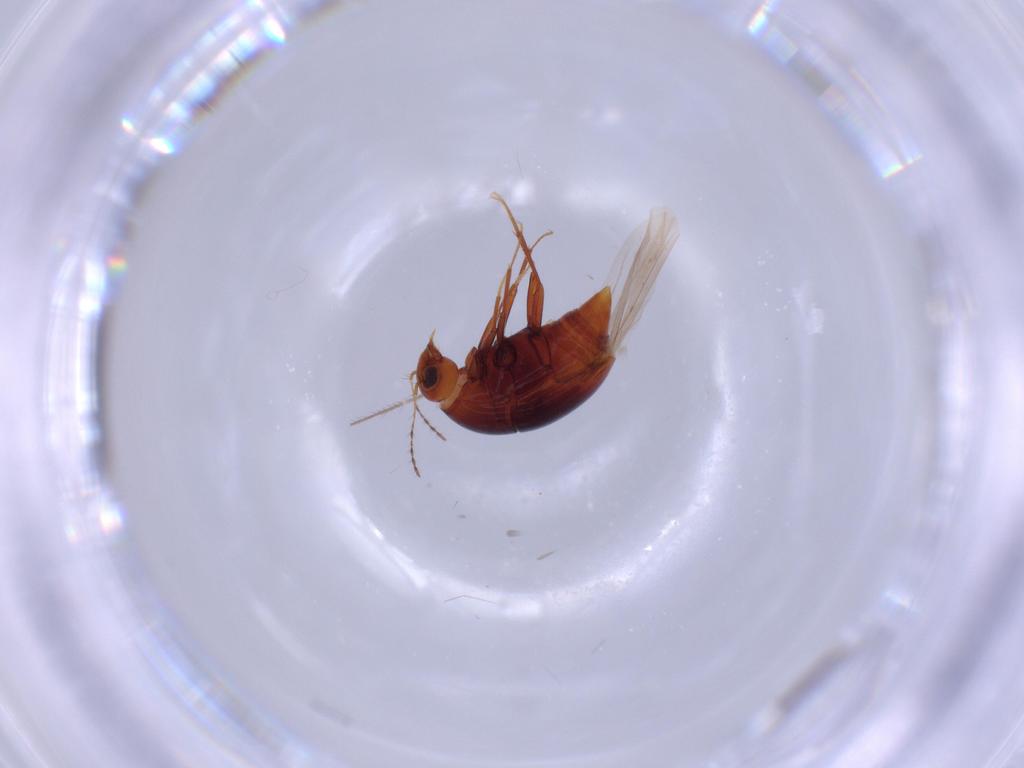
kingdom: Animalia
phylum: Arthropoda
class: Insecta
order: Coleoptera
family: Staphylinidae
